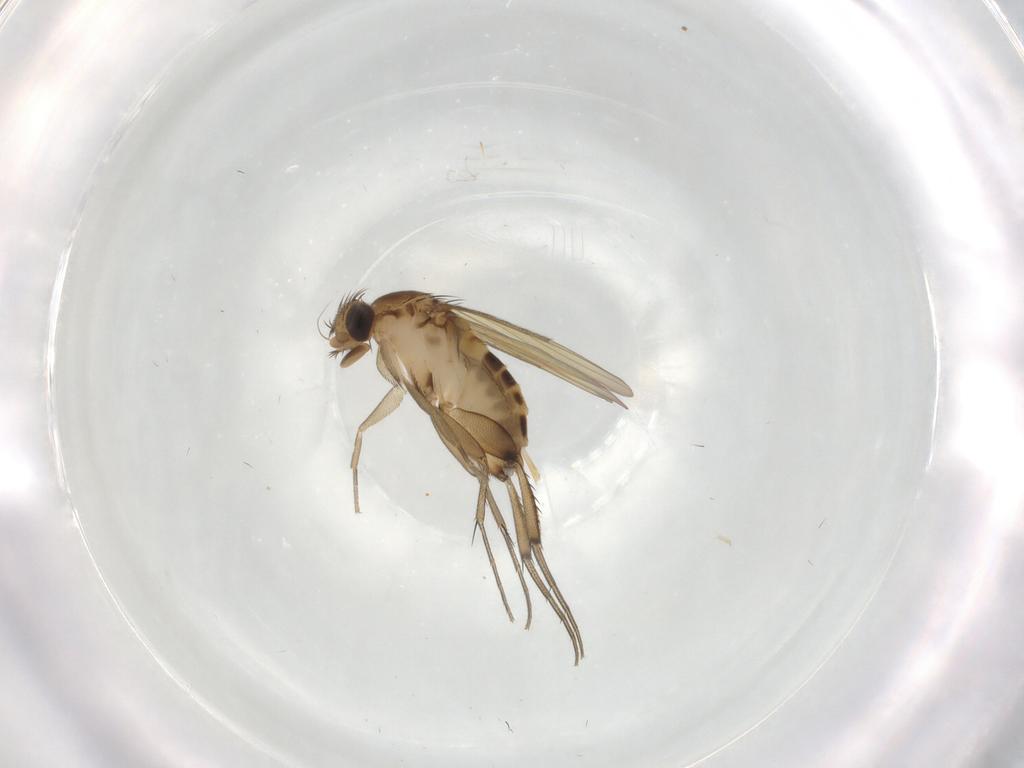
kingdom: Animalia
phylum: Arthropoda
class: Insecta
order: Diptera
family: Phoridae
